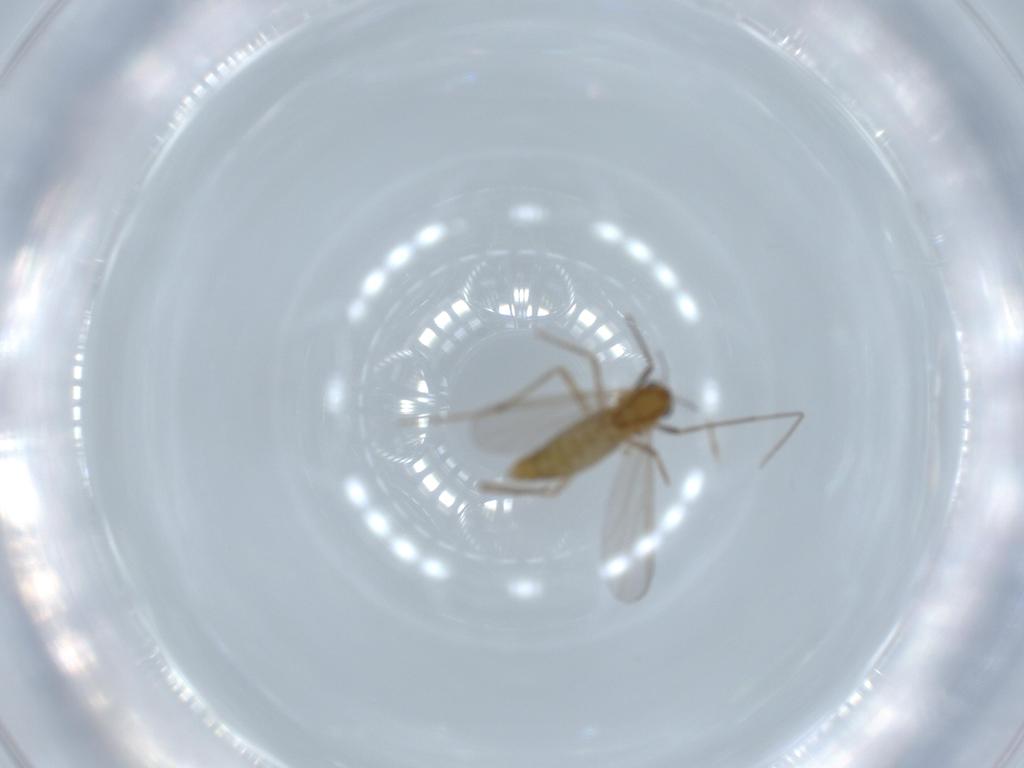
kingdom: Animalia
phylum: Arthropoda
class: Insecta
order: Diptera
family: Chironomidae
